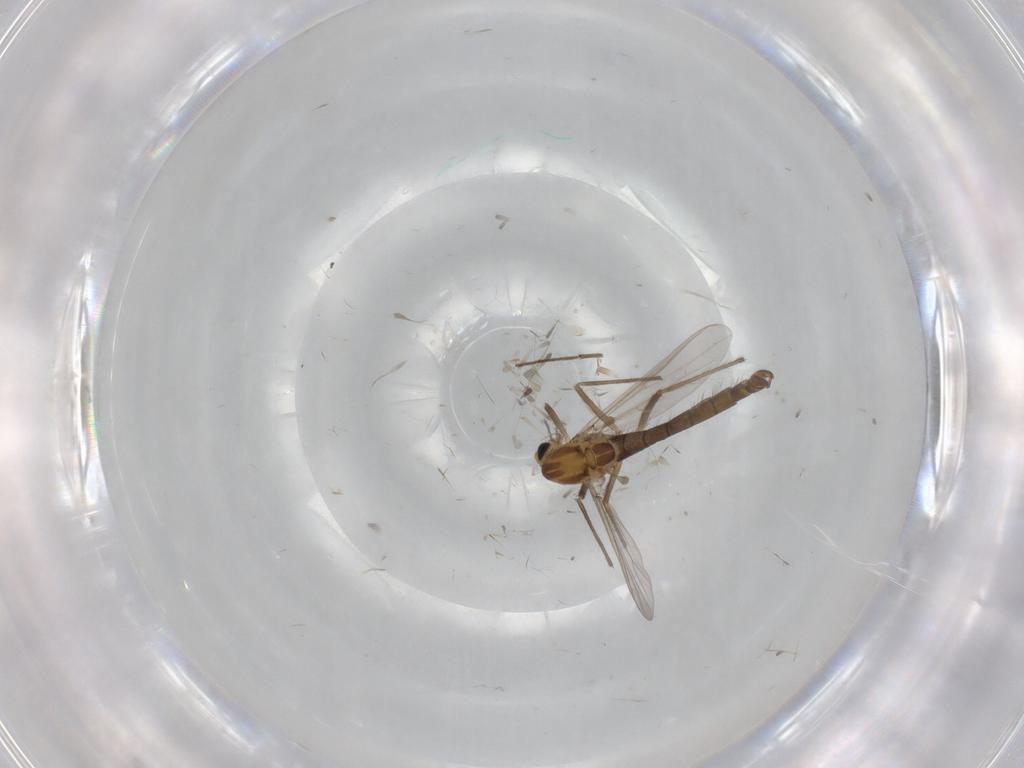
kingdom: Animalia
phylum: Arthropoda
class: Insecta
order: Diptera
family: Chironomidae
